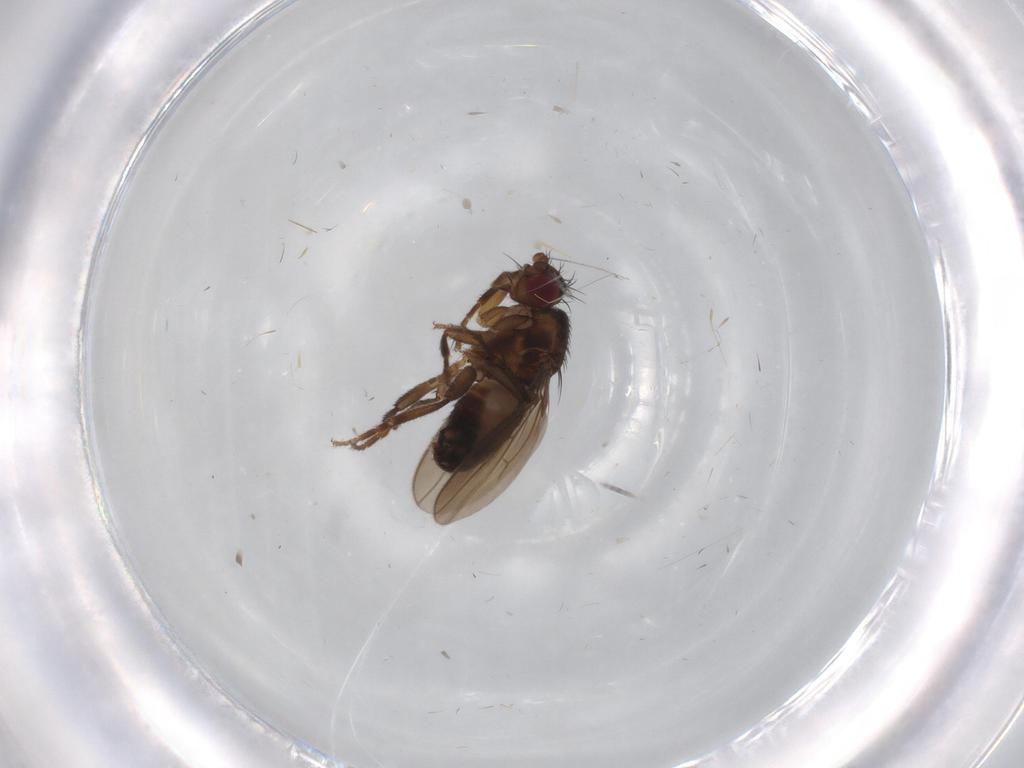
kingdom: Animalia
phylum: Arthropoda
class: Insecta
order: Diptera
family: Sphaeroceridae
